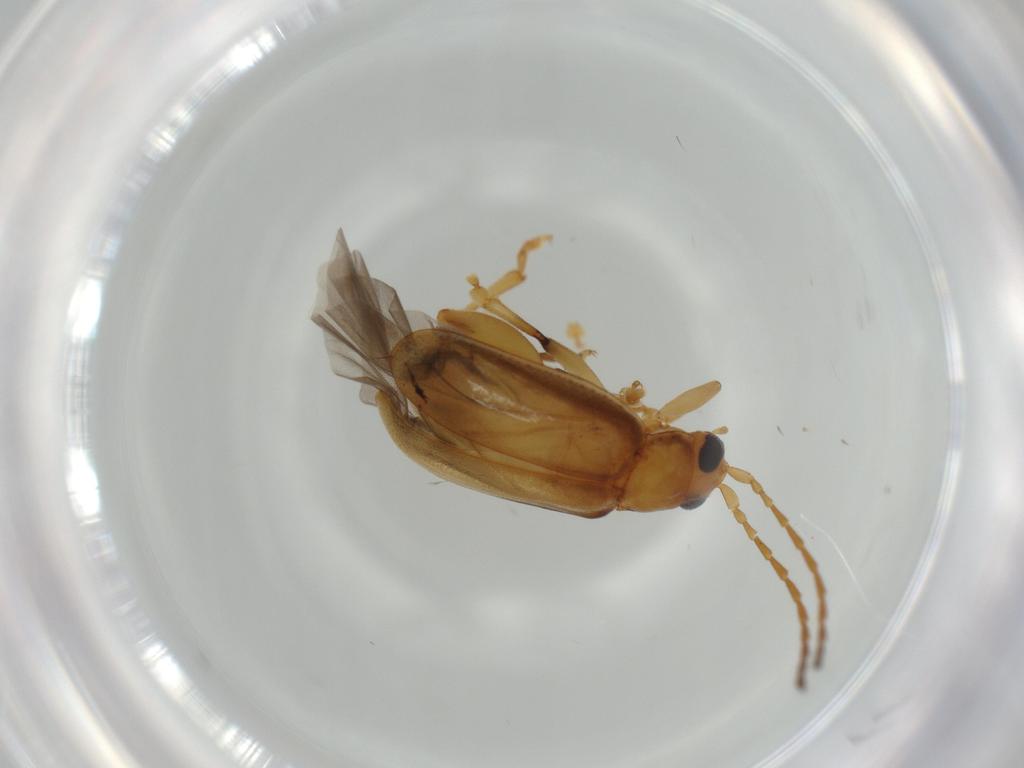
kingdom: Animalia
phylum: Arthropoda
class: Insecta
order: Coleoptera
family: Chrysomelidae
